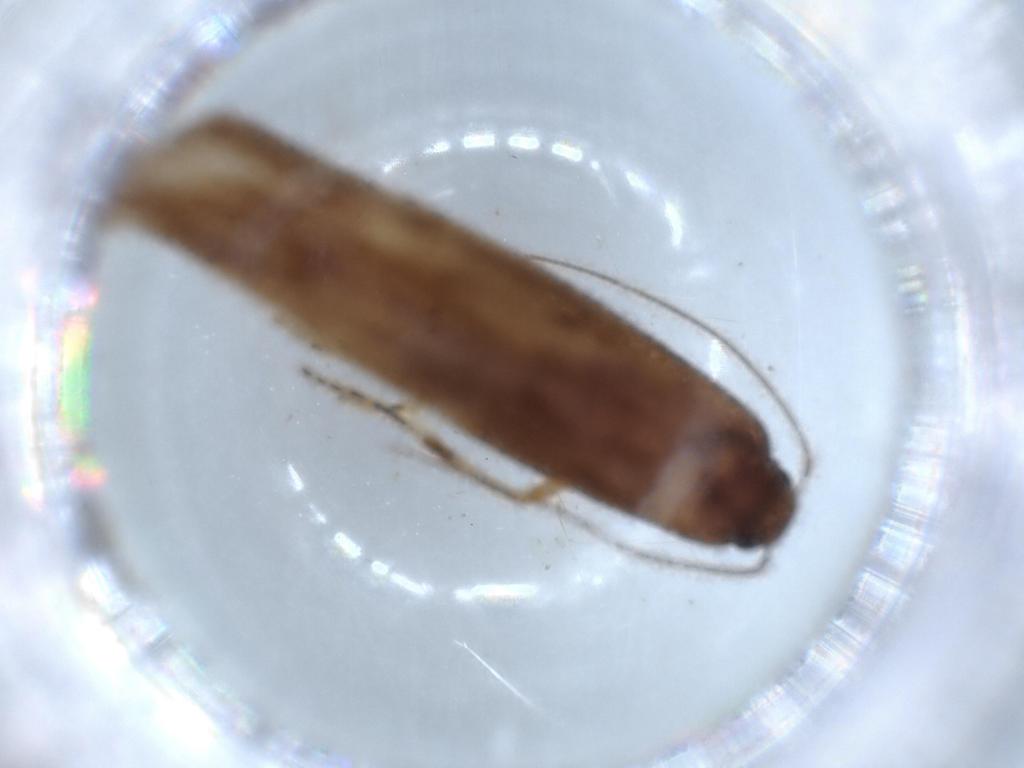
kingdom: Animalia
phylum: Arthropoda
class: Insecta
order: Lepidoptera
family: Stathmopodidae
